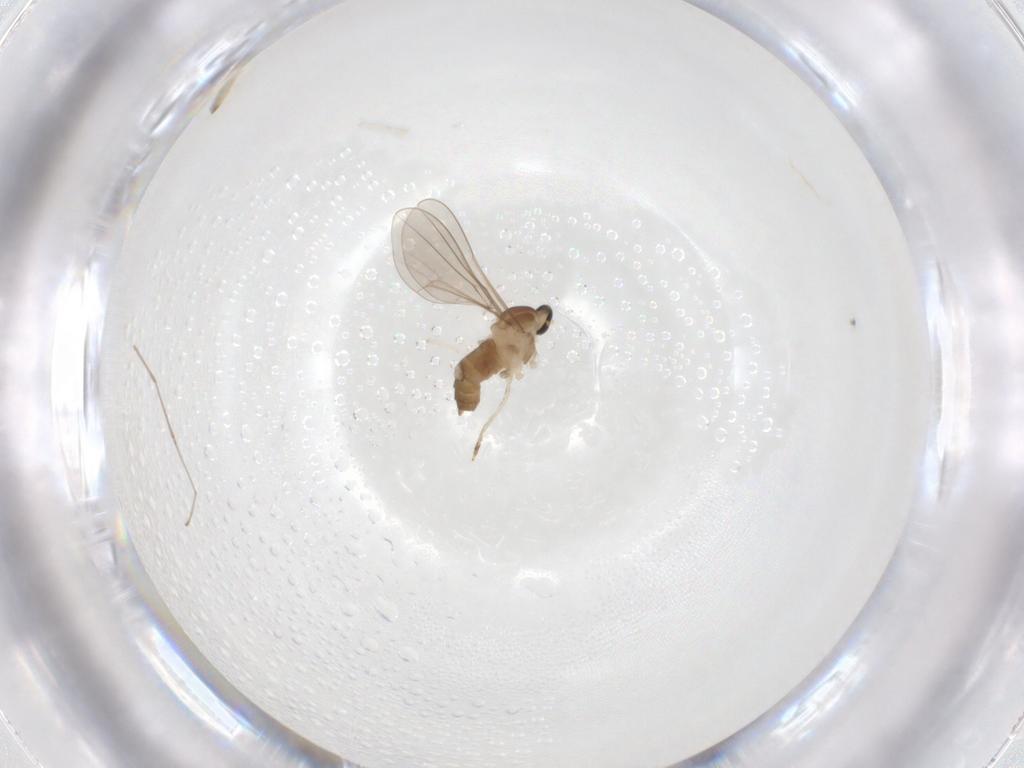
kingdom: Animalia
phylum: Arthropoda
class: Insecta
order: Diptera
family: Cecidomyiidae
